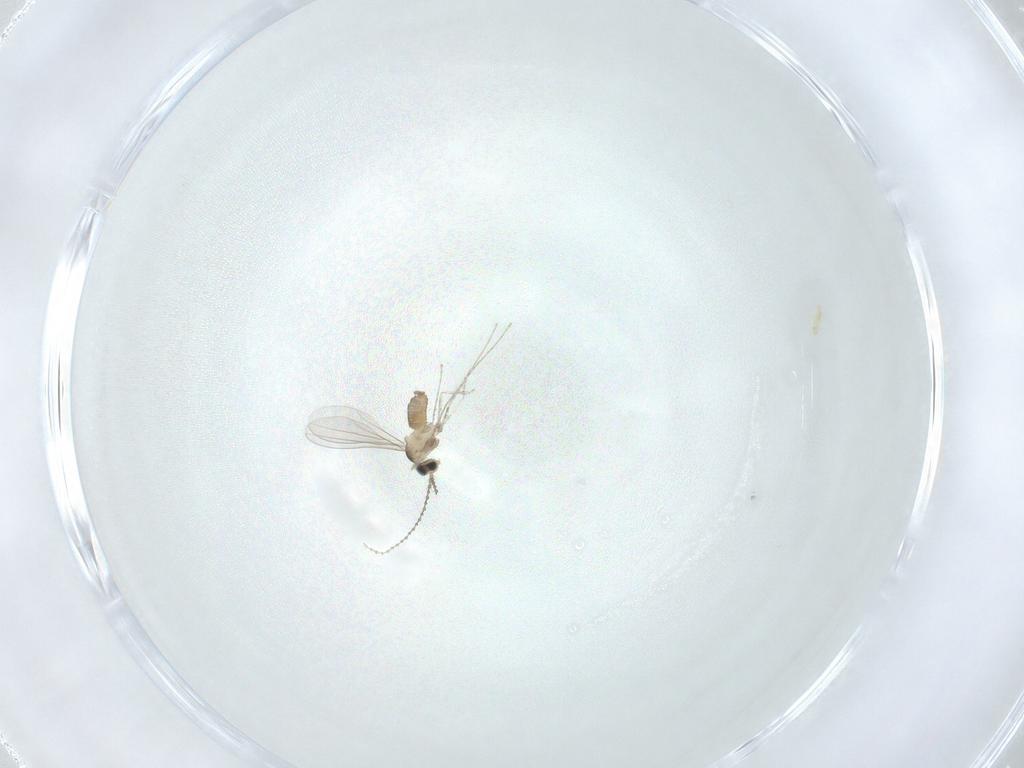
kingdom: Animalia
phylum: Arthropoda
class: Insecta
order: Diptera
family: Cecidomyiidae
